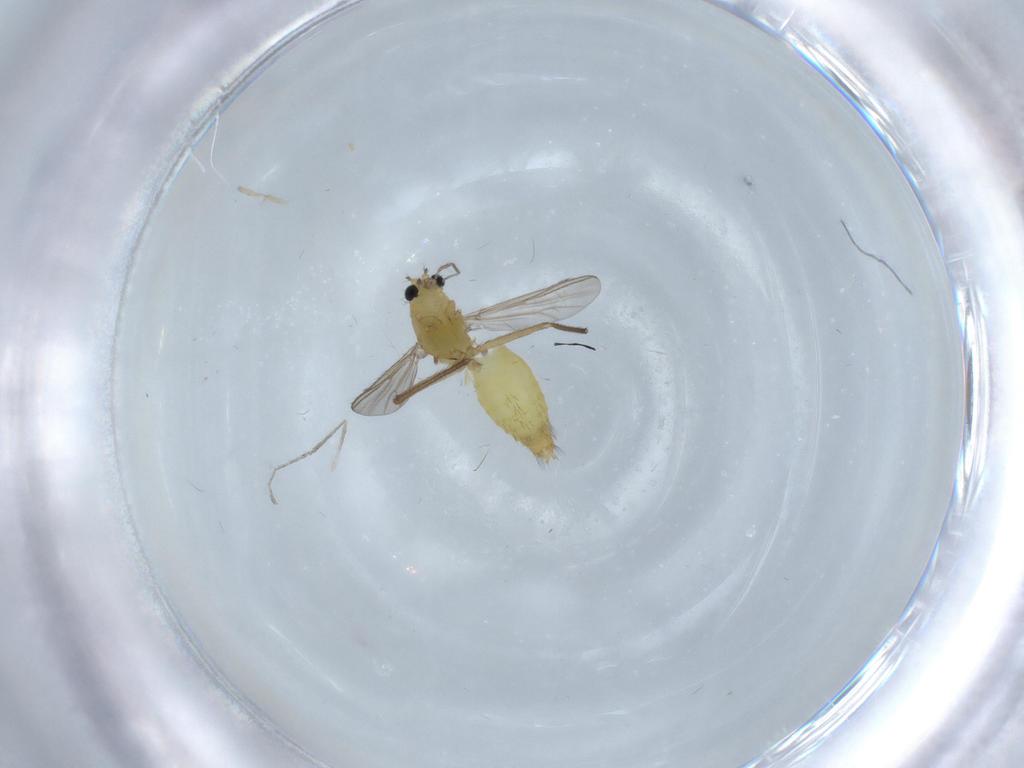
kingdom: Animalia
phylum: Arthropoda
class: Insecta
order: Diptera
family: Chironomidae
